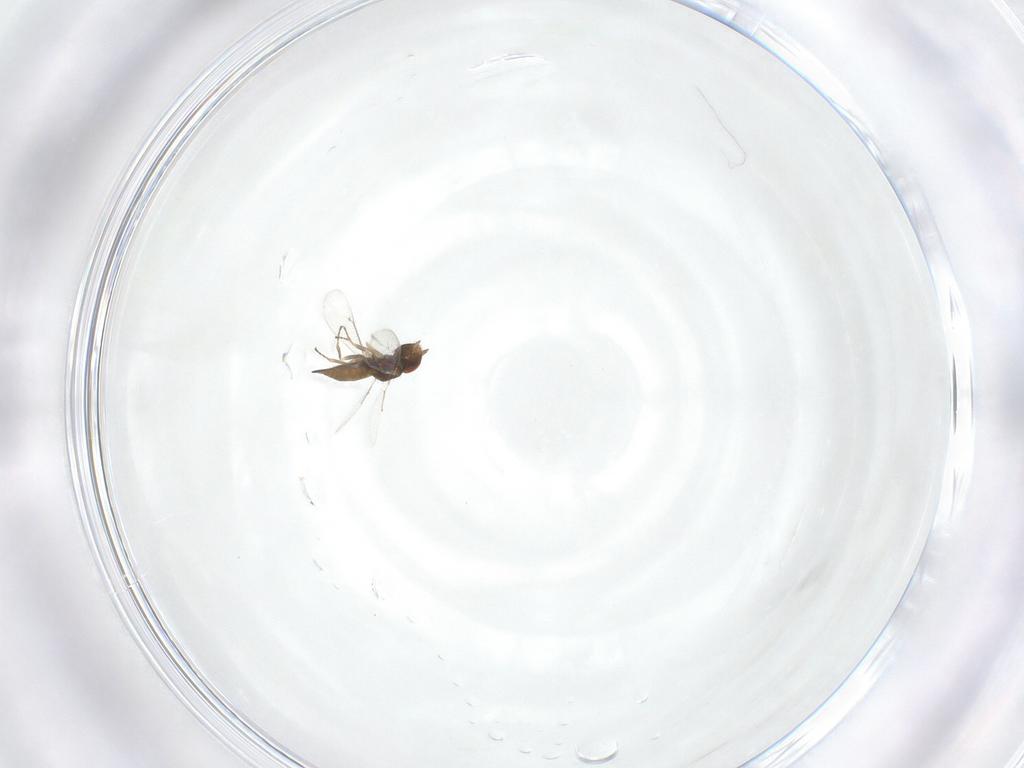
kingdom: Animalia
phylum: Arthropoda
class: Insecta
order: Hymenoptera
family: Eulophidae
